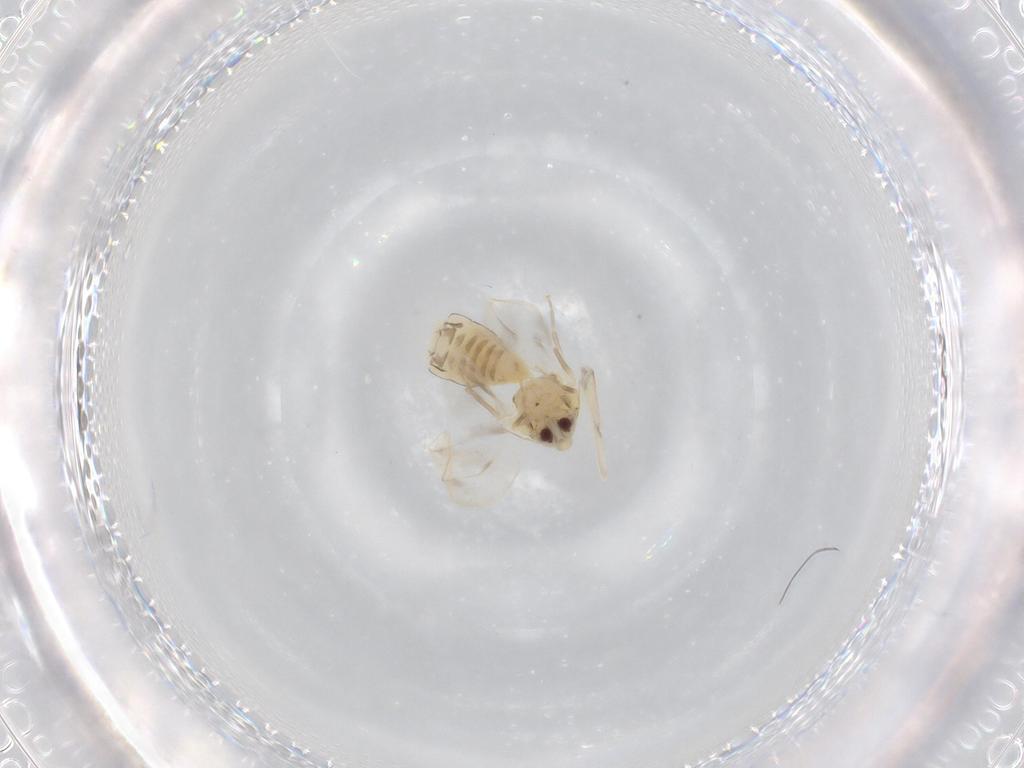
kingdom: Animalia
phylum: Arthropoda
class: Insecta
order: Hemiptera
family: Aleyrodidae
